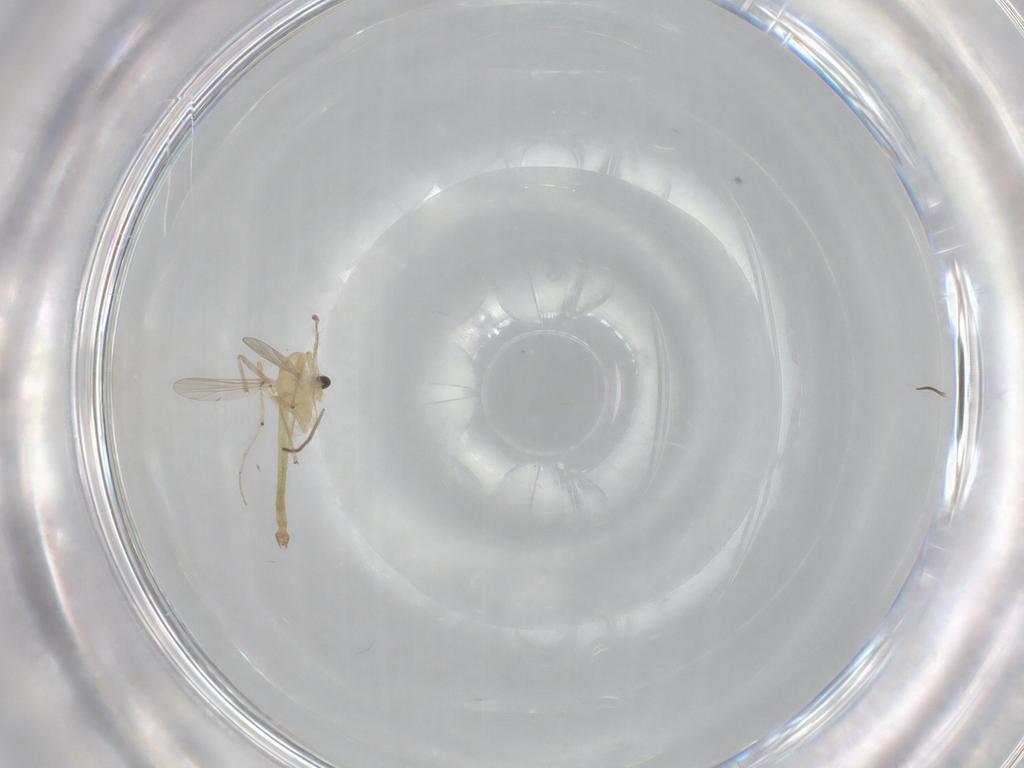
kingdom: Animalia
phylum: Arthropoda
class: Insecta
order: Diptera
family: Chironomidae
